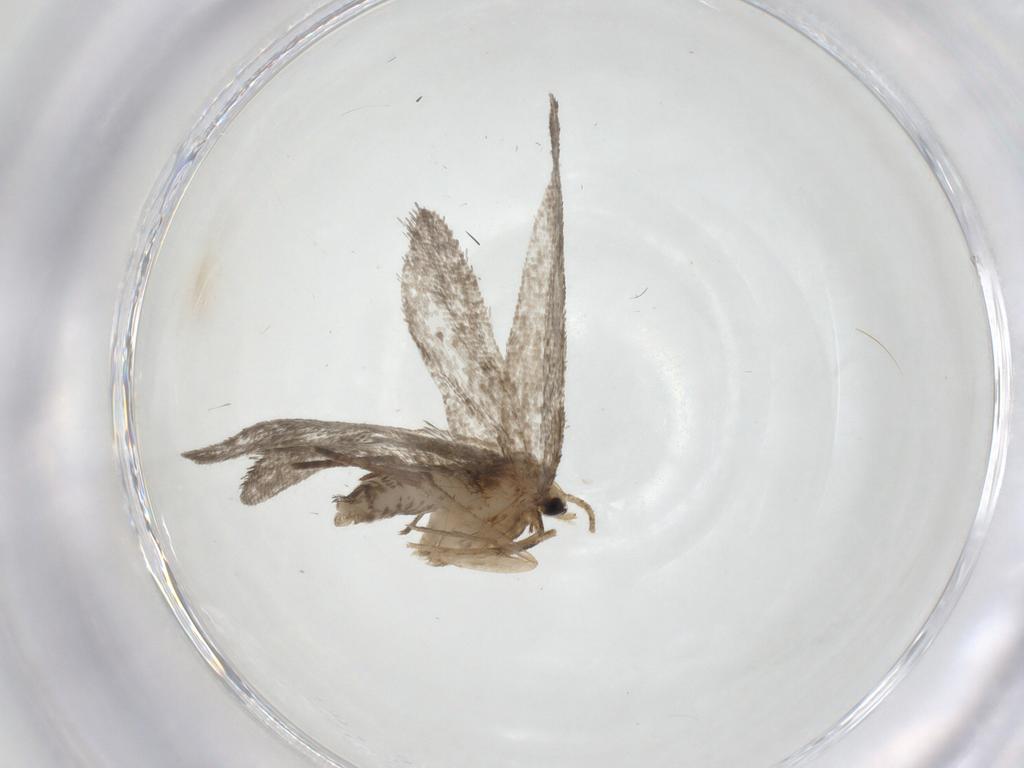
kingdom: Animalia
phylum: Arthropoda
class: Insecta
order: Lepidoptera
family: Psychidae
